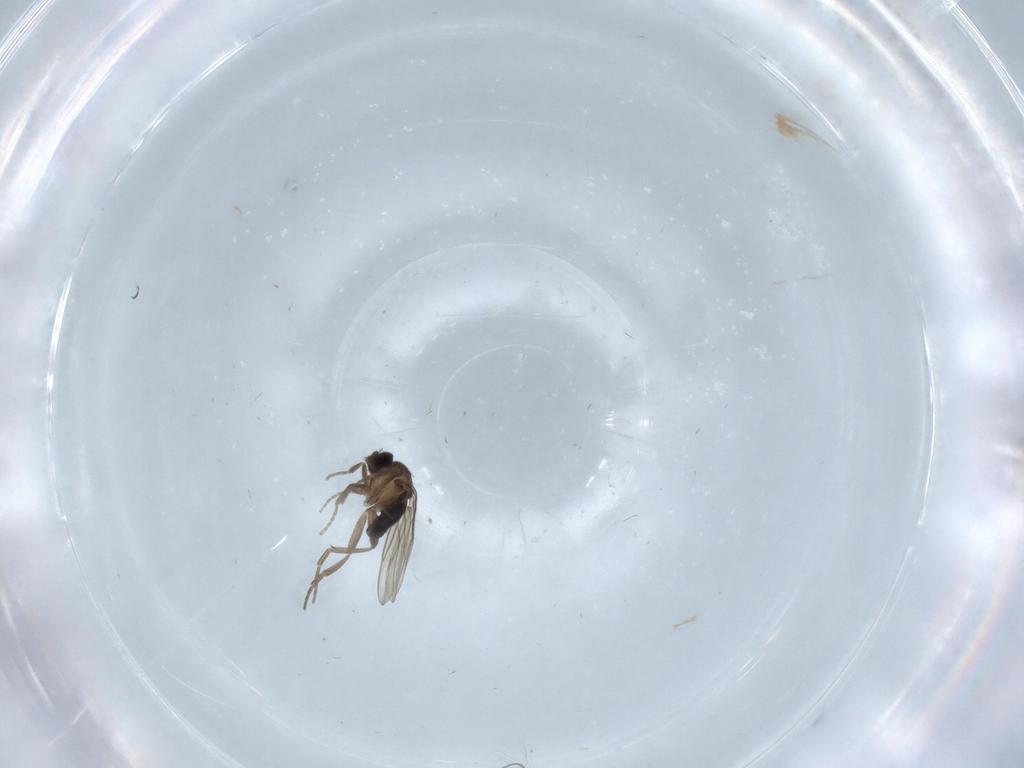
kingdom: Animalia
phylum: Arthropoda
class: Insecta
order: Diptera
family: Phoridae
